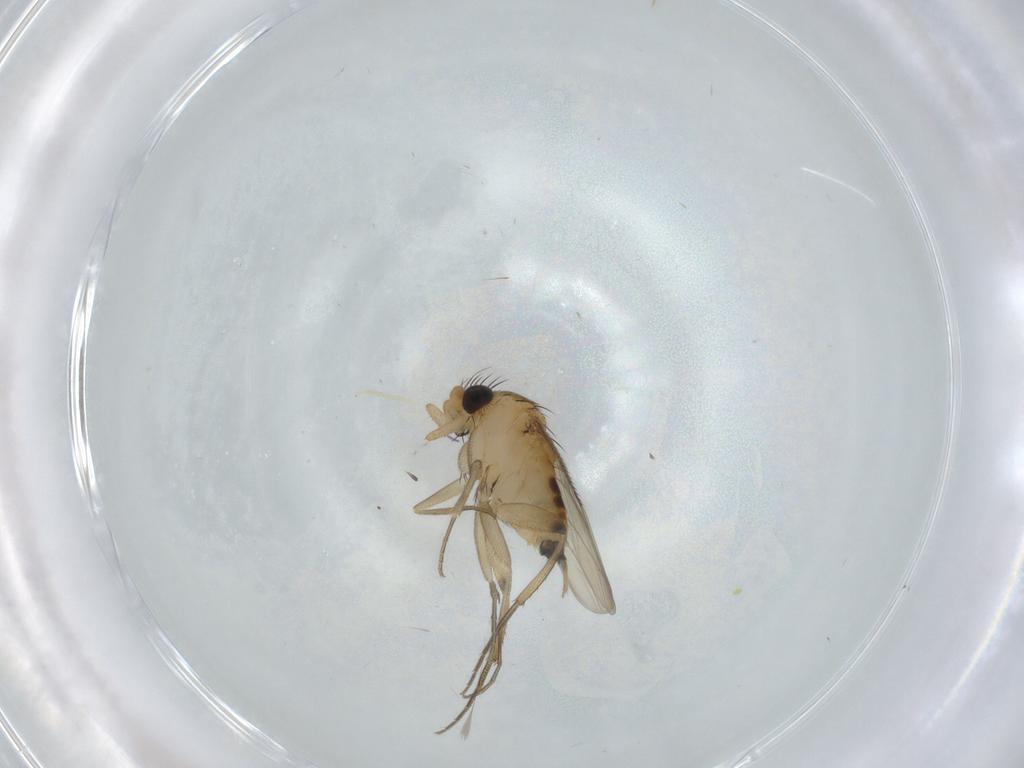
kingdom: Animalia
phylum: Arthropoda
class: Insecta
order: Diptera
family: Phoridae
